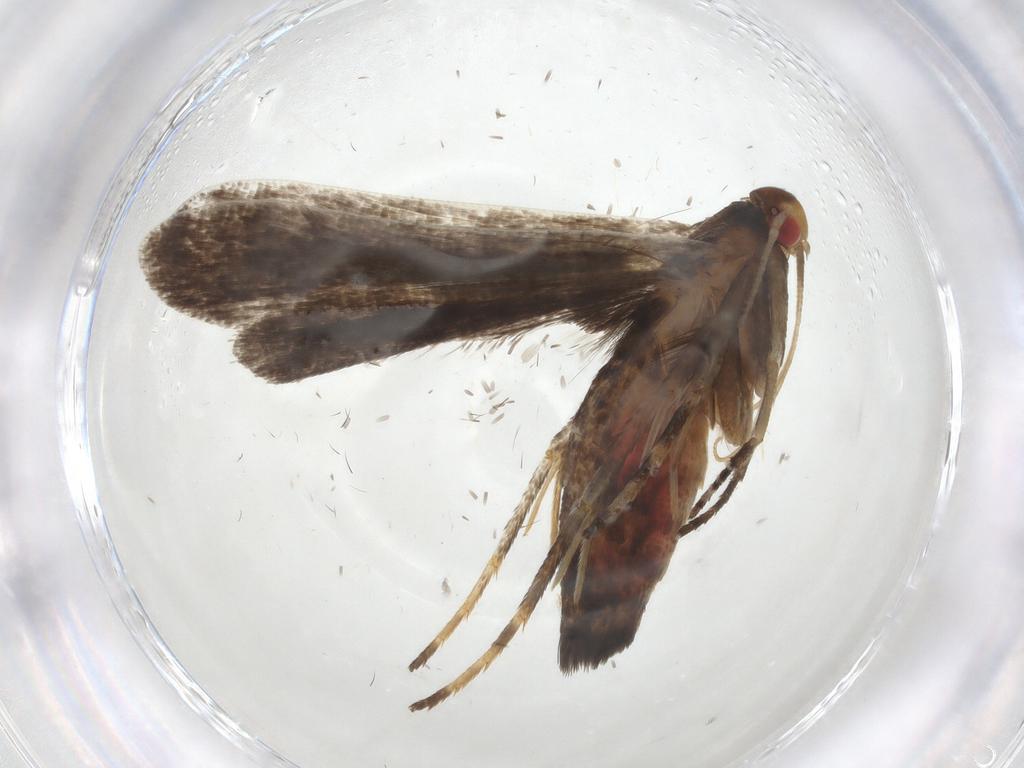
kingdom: Animalia
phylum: Arthropoda
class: Insecta
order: Lepidoptera
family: Gelechiidae
